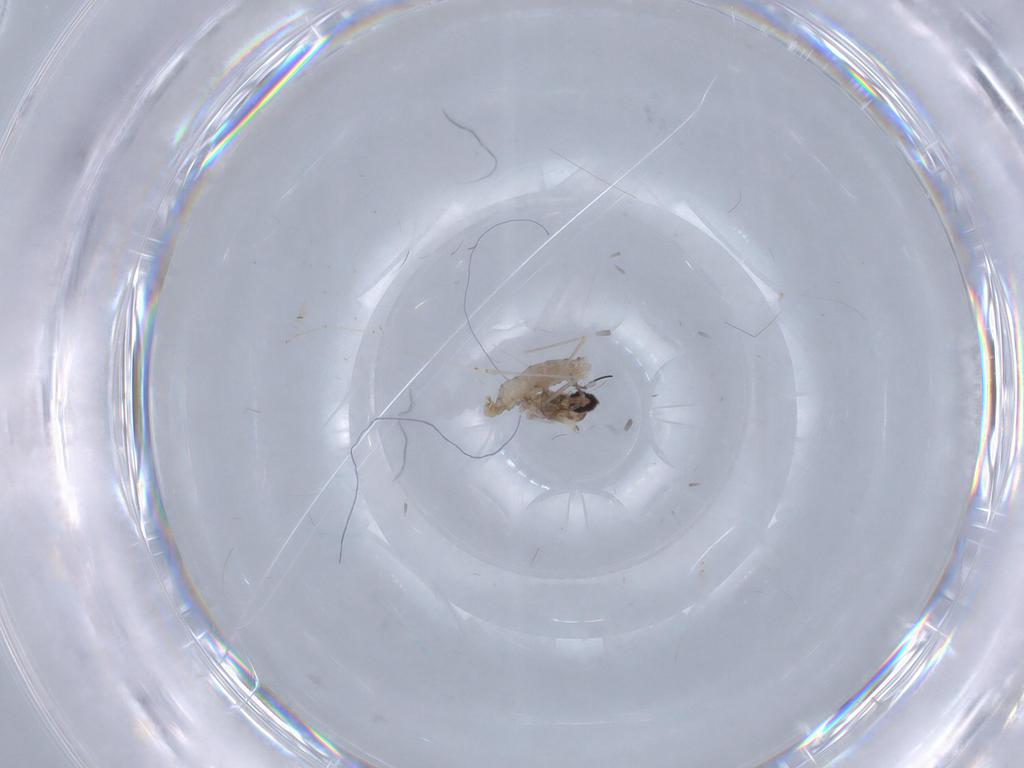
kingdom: Animalia
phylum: Arthropoda
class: Insecta
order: Diptera
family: Cecidomyiidae
